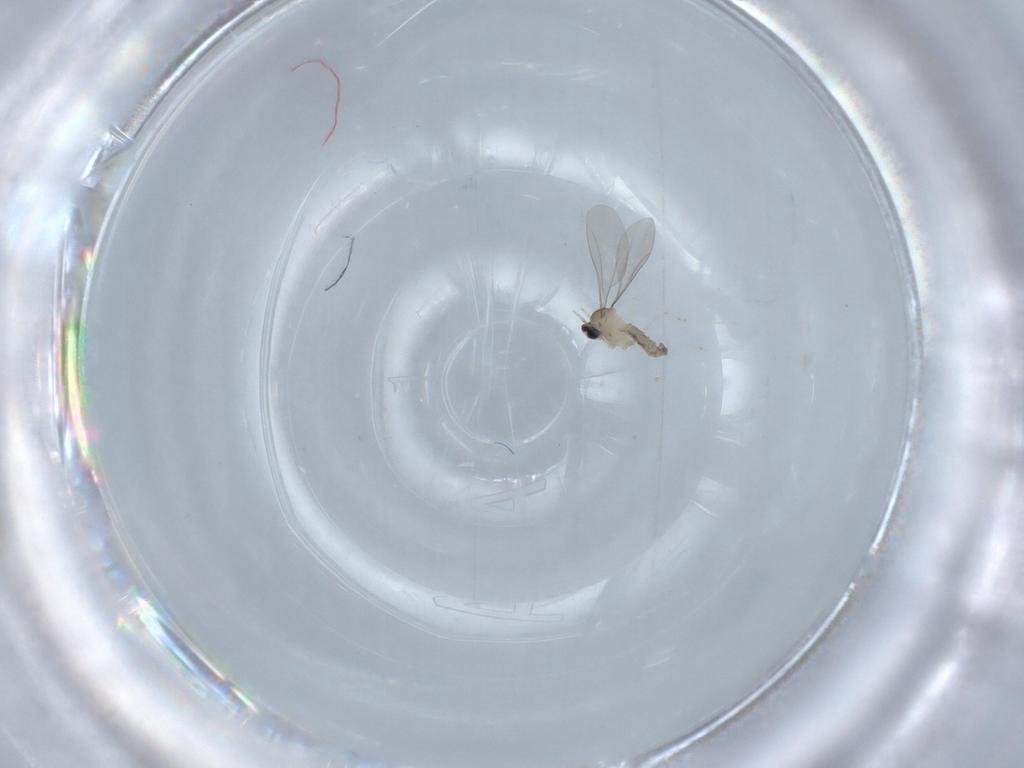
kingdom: Animalia
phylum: Arthropoda
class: Insecta
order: Diptera
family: Cecidomyiidae
